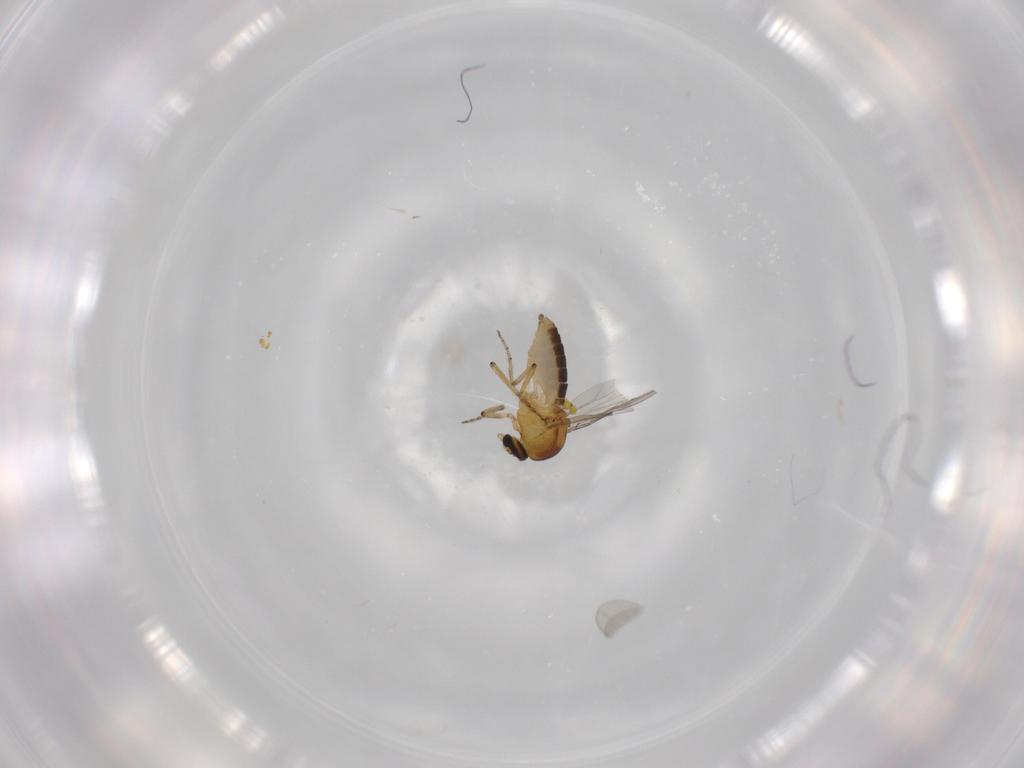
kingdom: Animalia
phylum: Arthropoda
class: Insecta
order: Diptera
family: Ceratopogonidae
